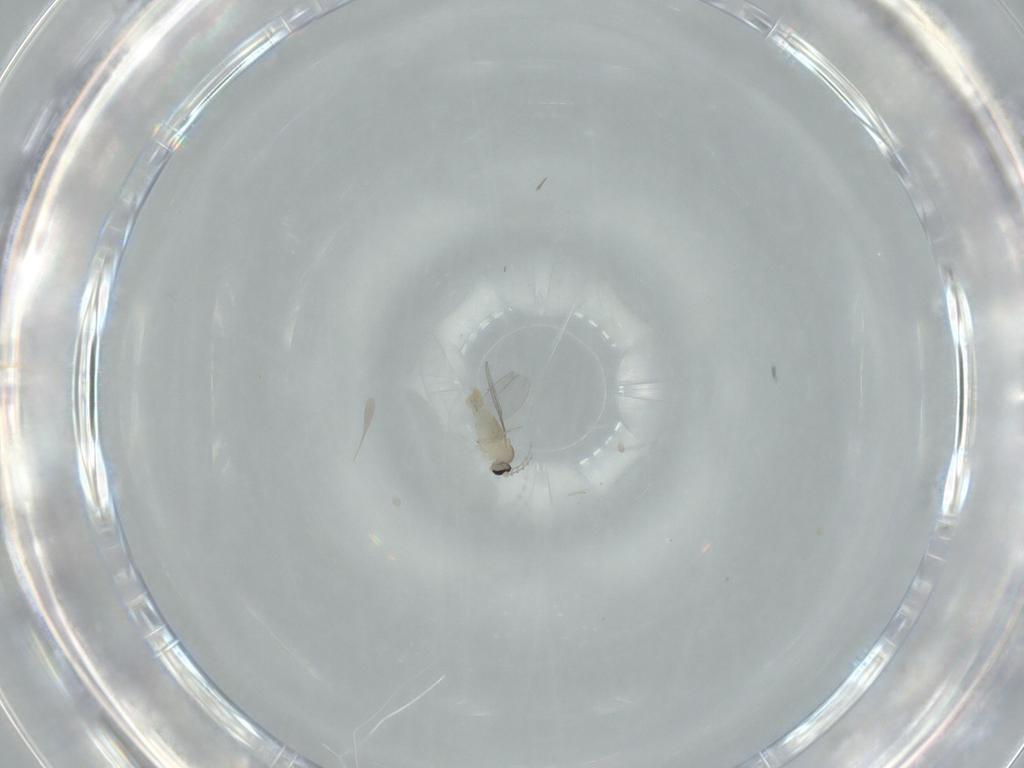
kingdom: Animalia
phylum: Arthropoda
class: Insecta
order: Diptera
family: Cecidomyiidae
